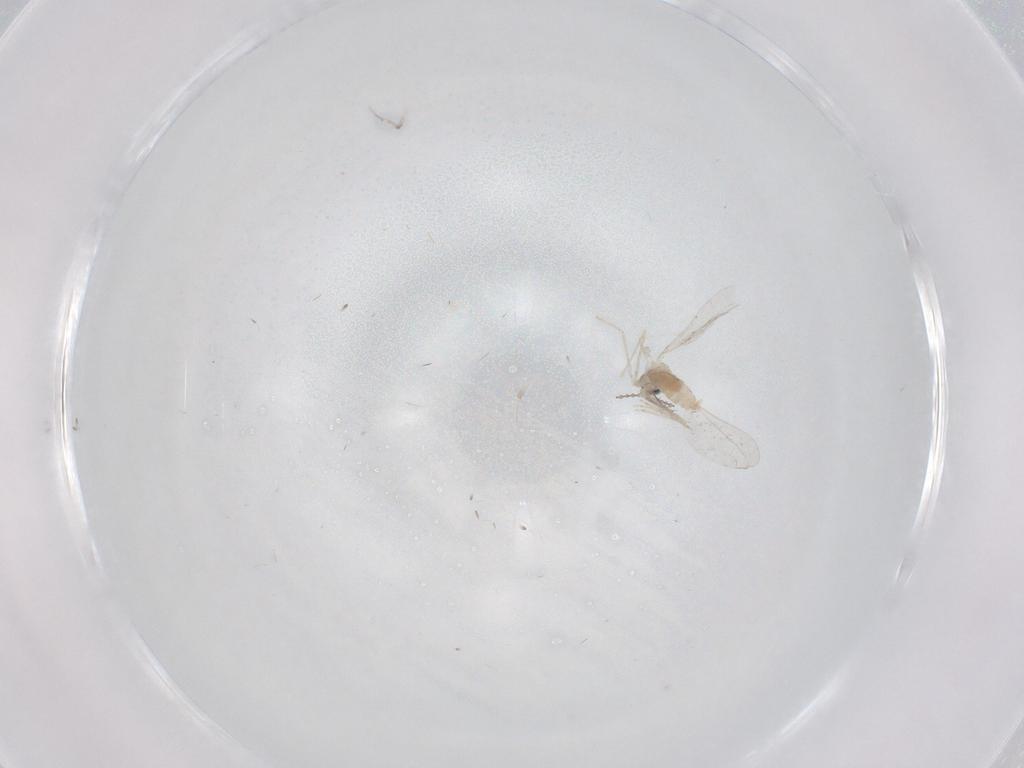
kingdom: Animalia
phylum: Arthropoda
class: Insecta
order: Diptera
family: Cecidomyiidae
